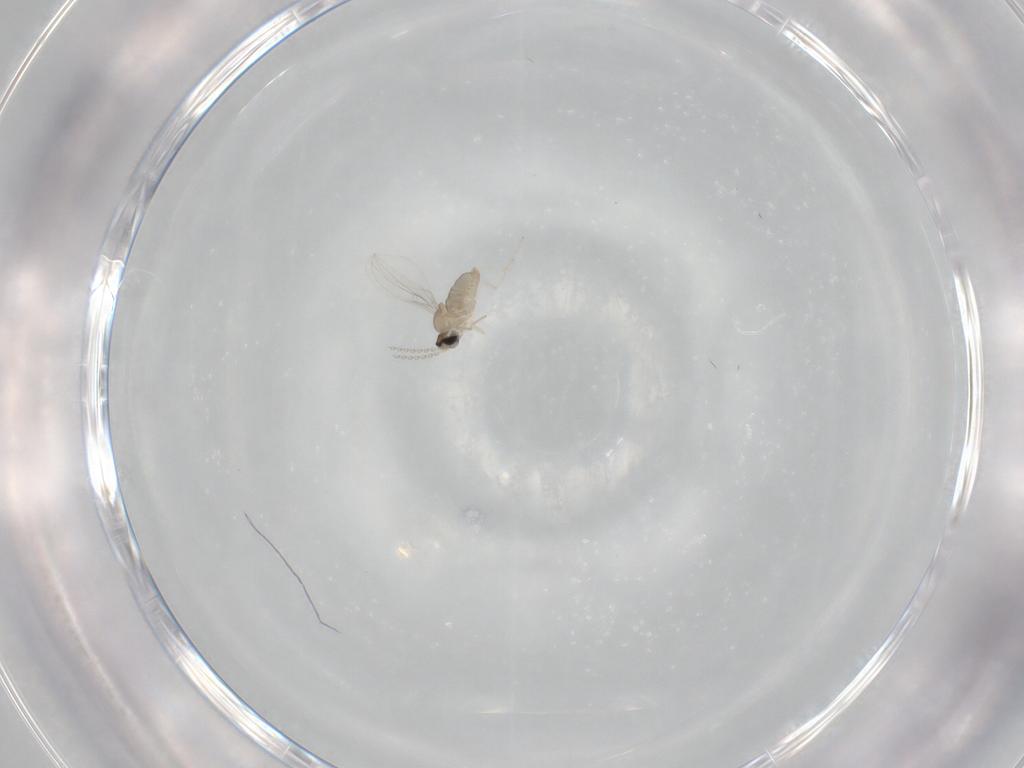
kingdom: Animalia
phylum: Arthropoda
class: Insecta
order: Diptera
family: Cecidomyiidae
